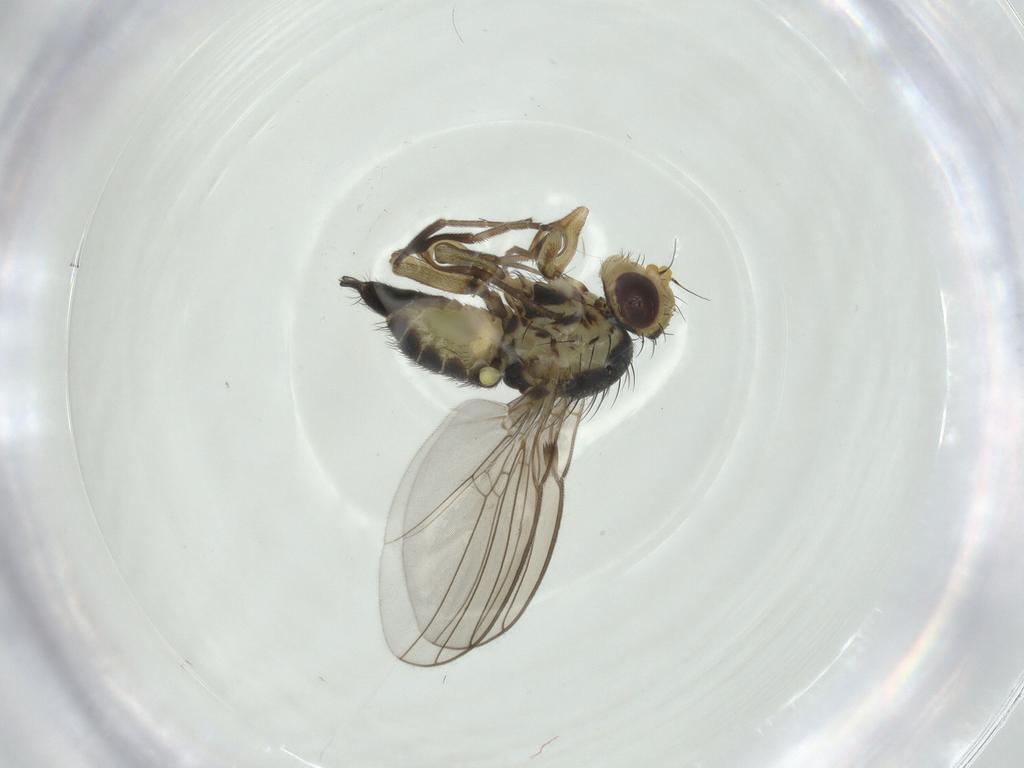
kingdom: Animalia
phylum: Arthropoda
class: Insecta
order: Diptera
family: Agromyzidae
